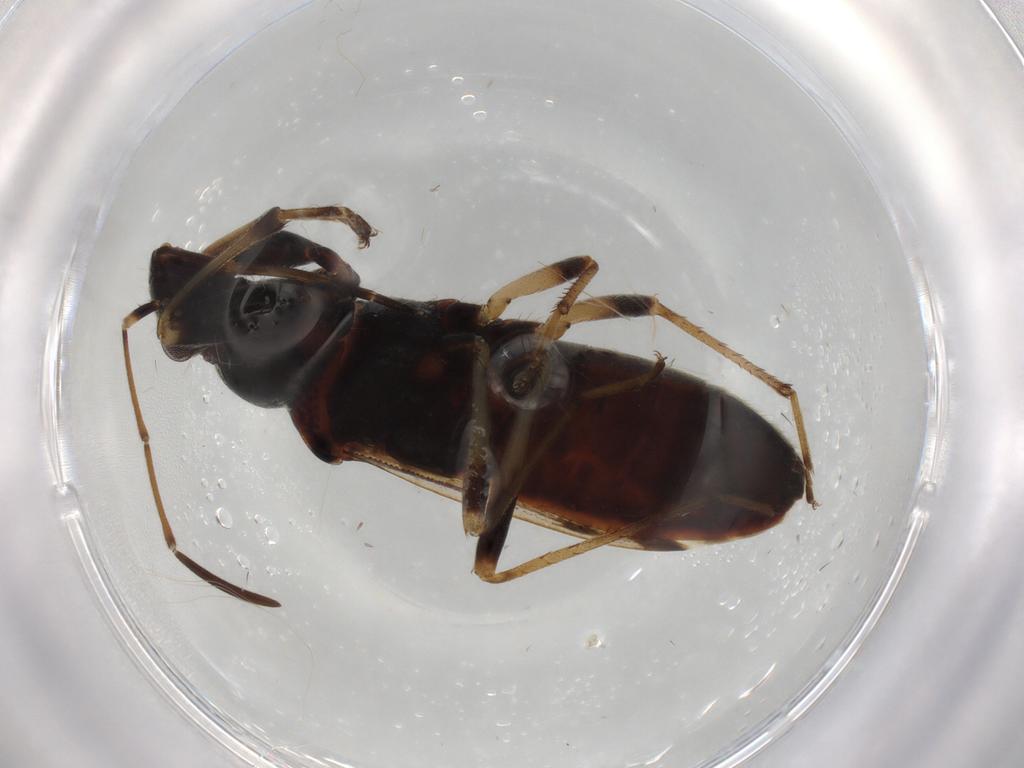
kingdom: Animalia
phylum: Arthropoda
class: Insecta
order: Hemiptera
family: Rhyparochromidae
